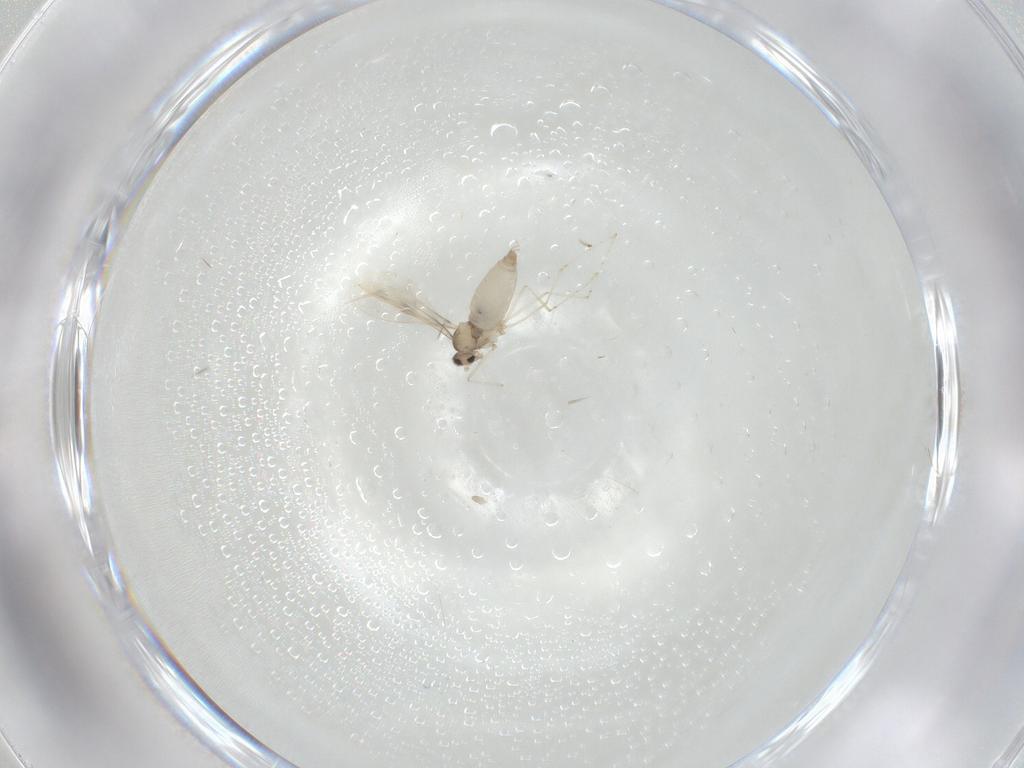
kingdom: Animalia
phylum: Arthropoda
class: Insecta
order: Diptera
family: Cecidomyiidae
